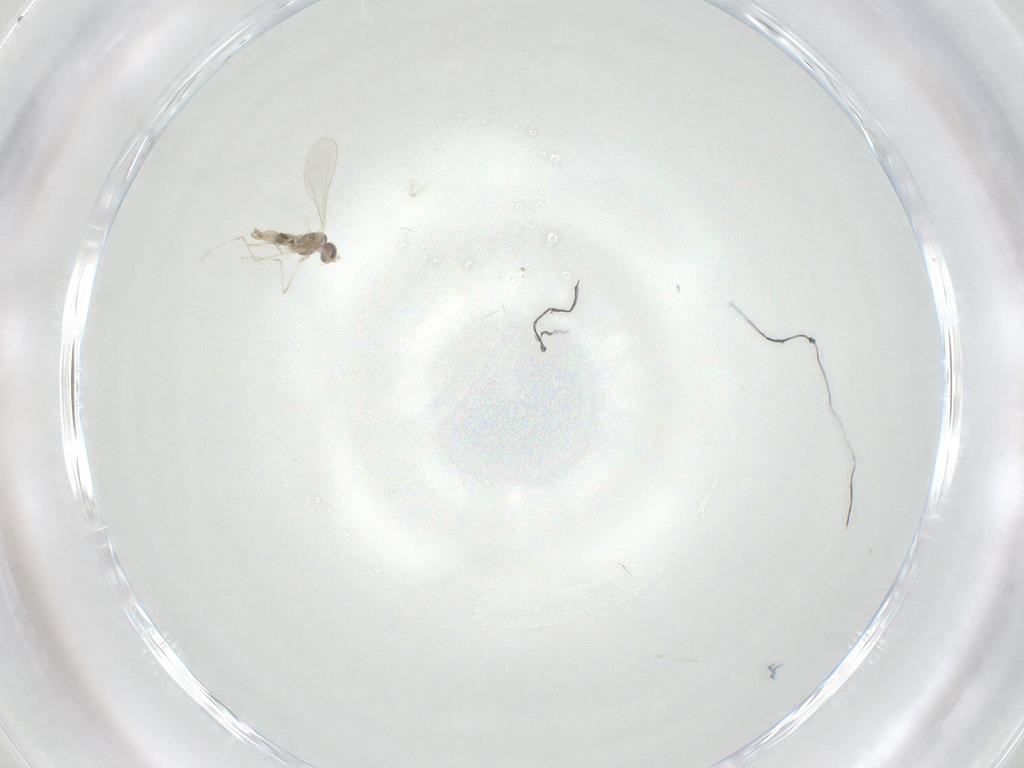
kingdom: Animalia
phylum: Arthropoda
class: Insecta
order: Diptera
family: Cecidomyiidae
